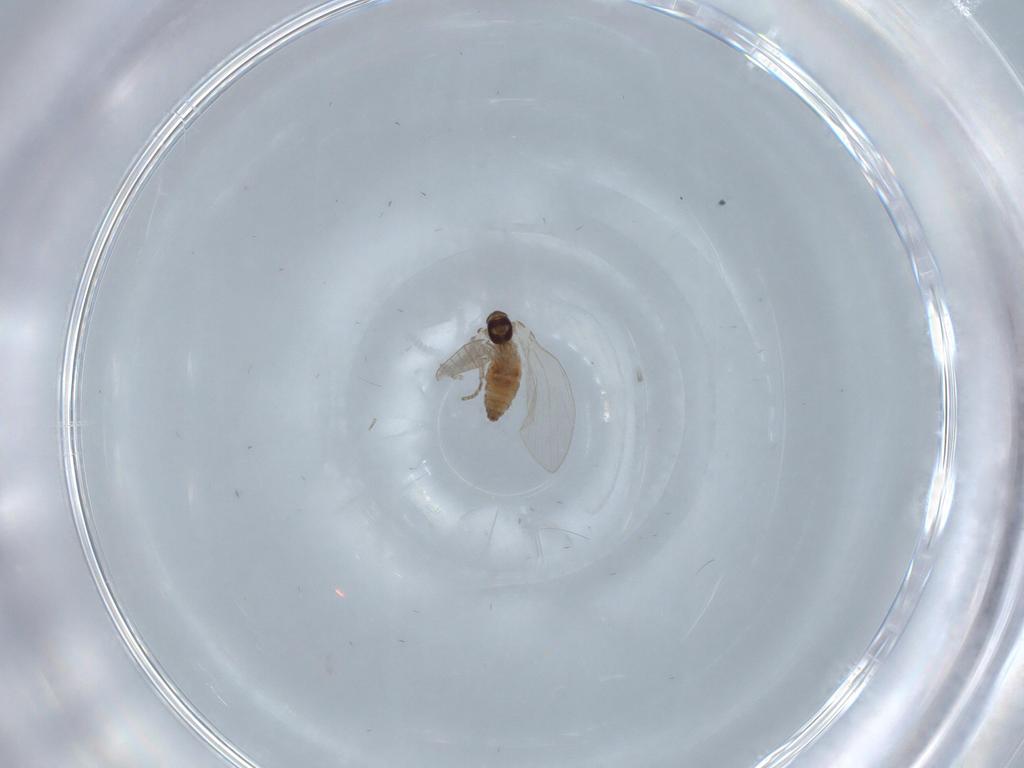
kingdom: Animalia
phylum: Arthropoda
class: Insecta
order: Diptera
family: Psychodidae
